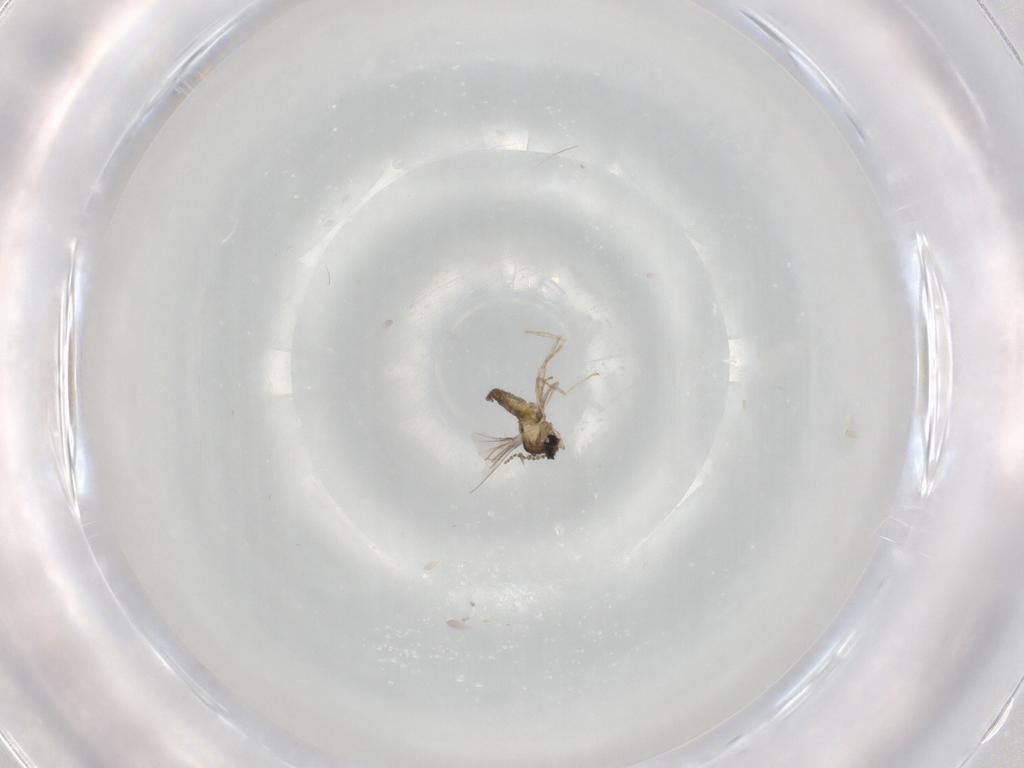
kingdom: Animalia
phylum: Arthropoda
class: Insecta
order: Diptera
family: Cecidomyiidae
